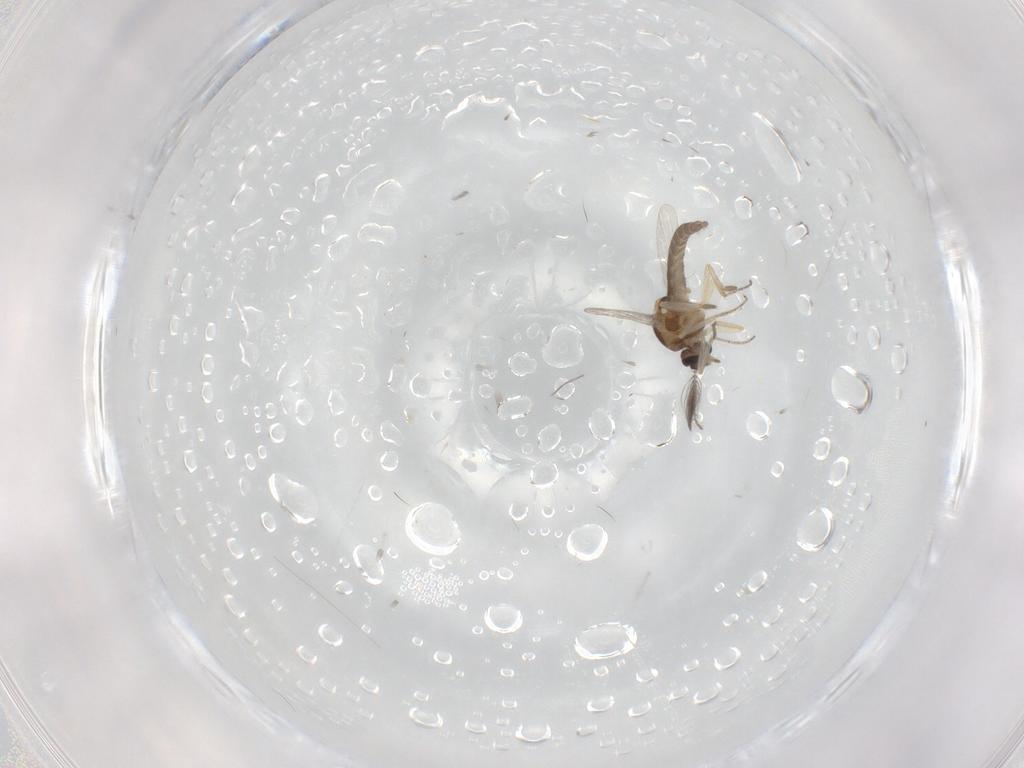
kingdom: Animalia
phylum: Arthropoda
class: Insecta
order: Diptera
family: Ceratopogonidae
